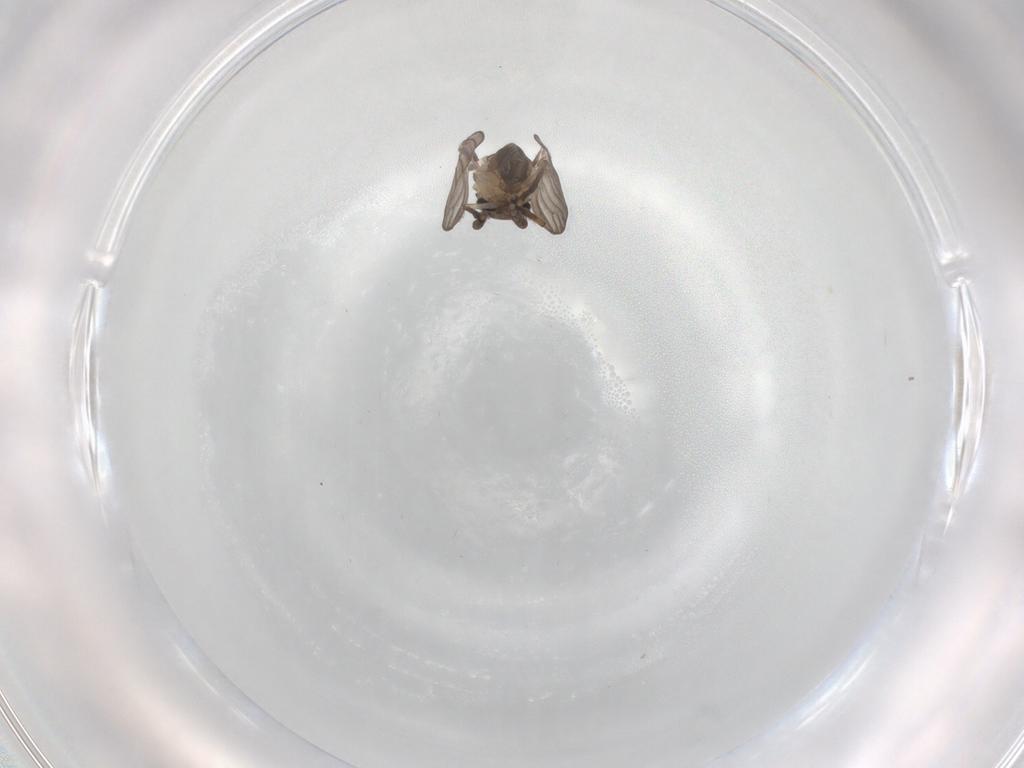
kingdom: Animalia
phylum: Arthropoda
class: Insecta
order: Diptera
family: Cecidomyiidae
